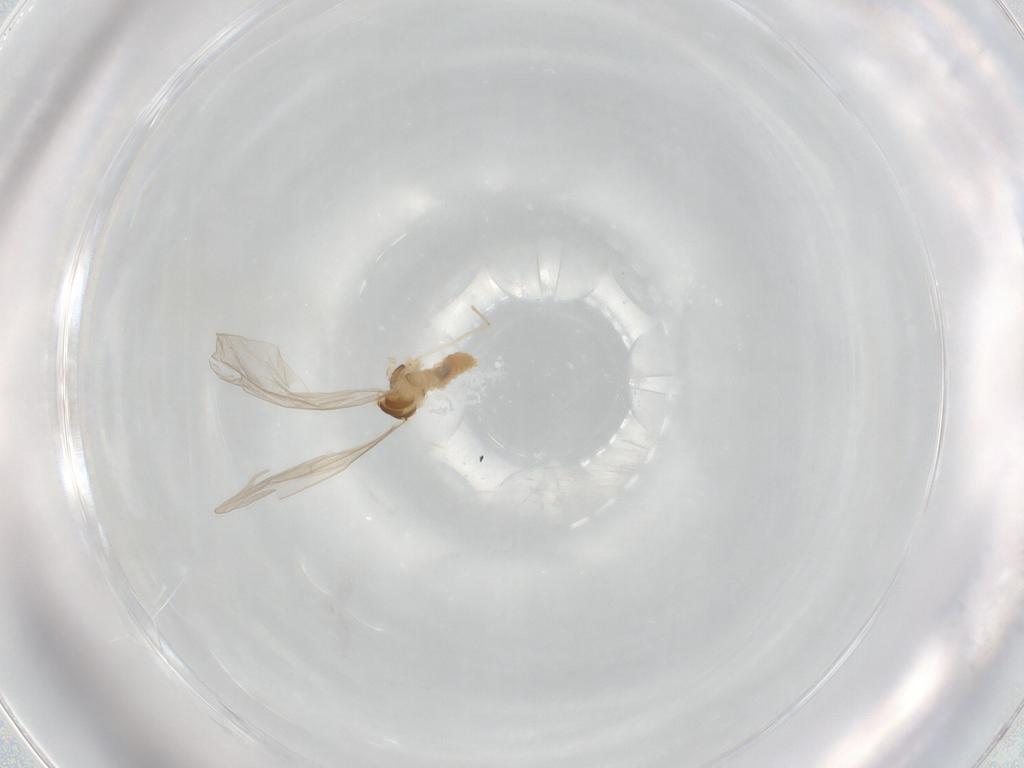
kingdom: Animalia
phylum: Arthropoda
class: Insecta
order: Diptera
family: Cecidomyiidae
